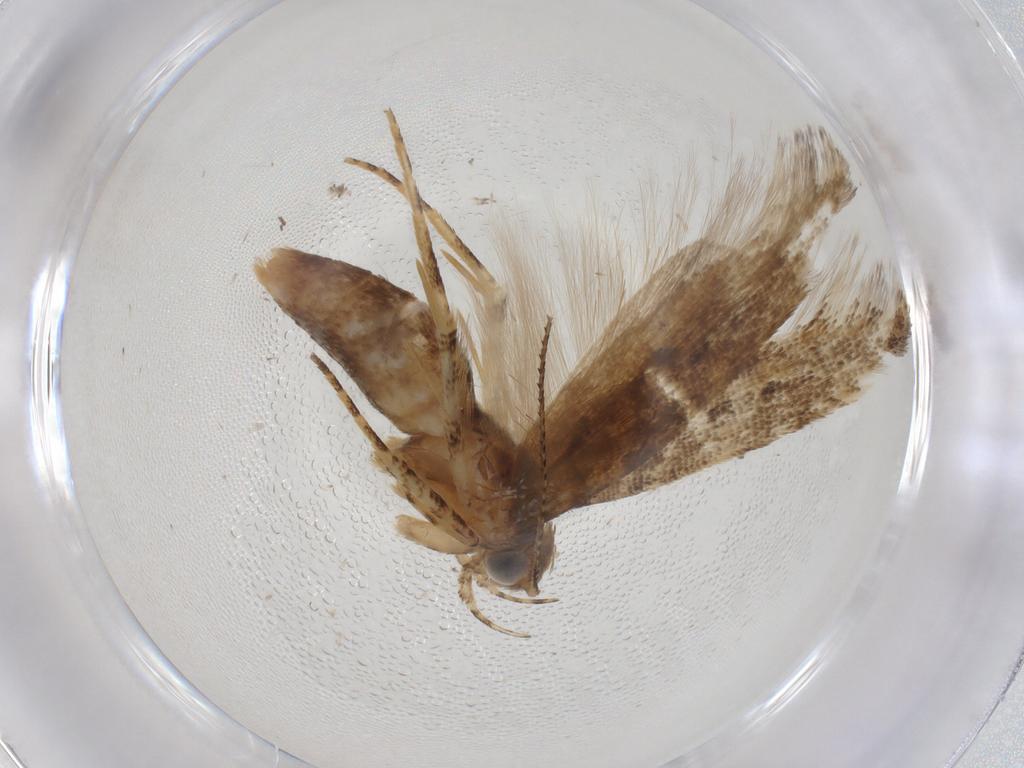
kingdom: Animalia
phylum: Arthropoda
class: Insecta
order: Lepidoptera
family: Gelechiidae
